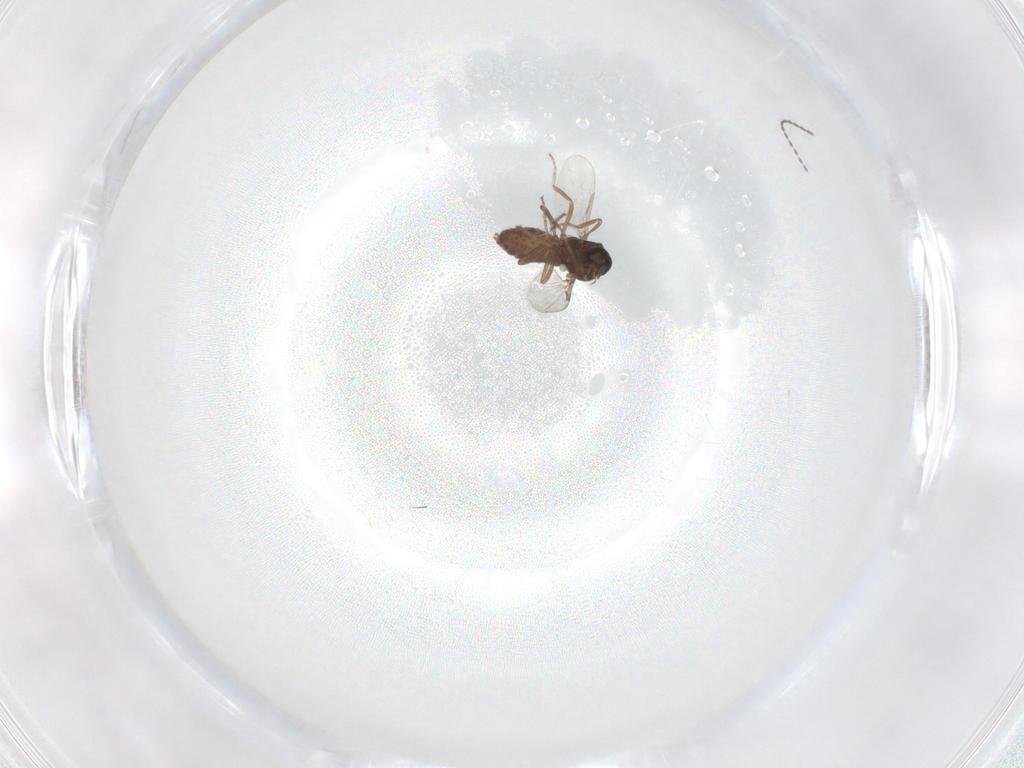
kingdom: Animalia
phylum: Arthropoda
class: Insecta
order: Diptera
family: Ceratopogonidae
